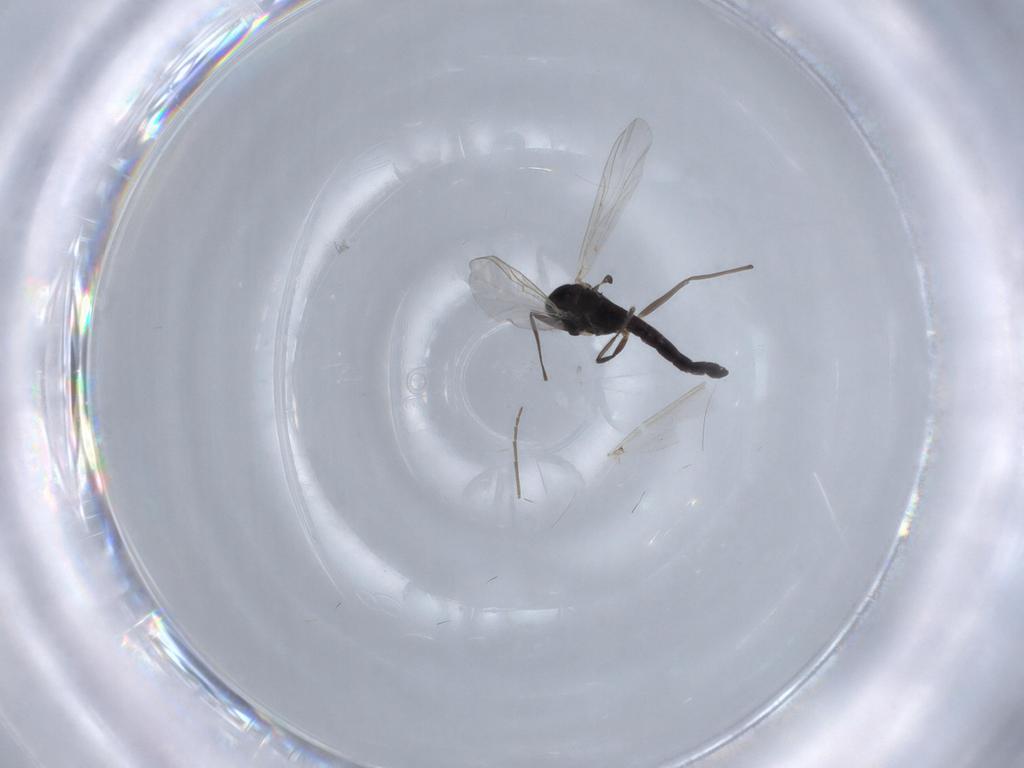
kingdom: Animalia
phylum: Arthropoda
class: Insecta
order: Diptera
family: Chironomidae
